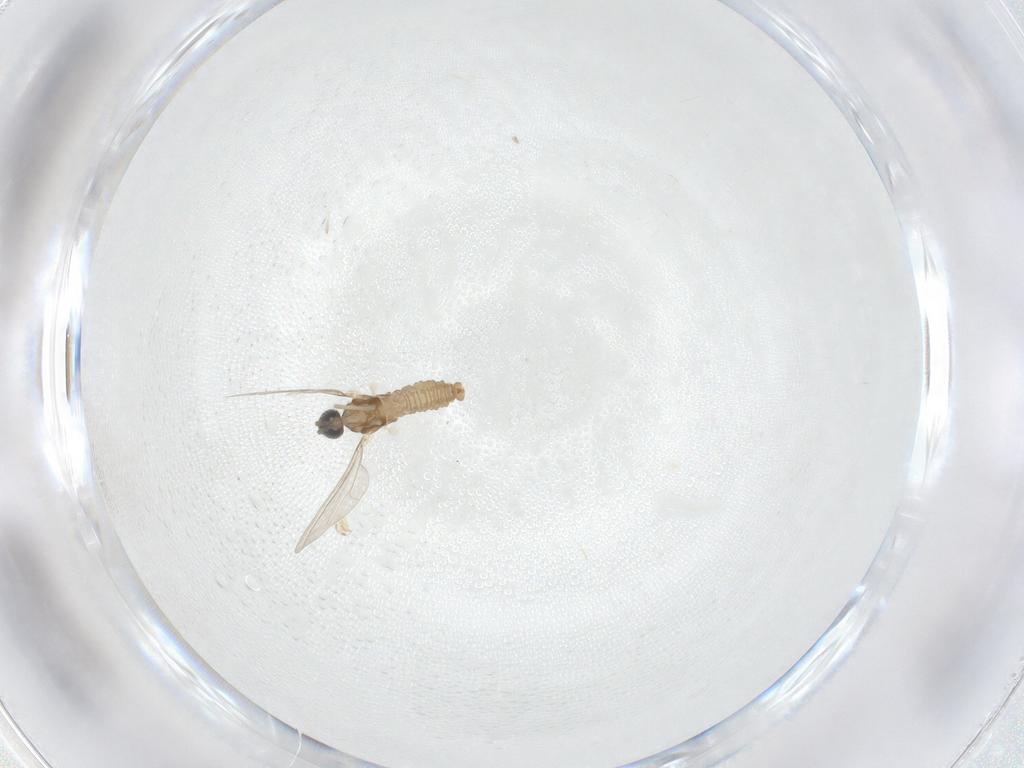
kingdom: Animalia
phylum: Arthropoda
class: Insecta
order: Diptera
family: Cecidomyiidae
